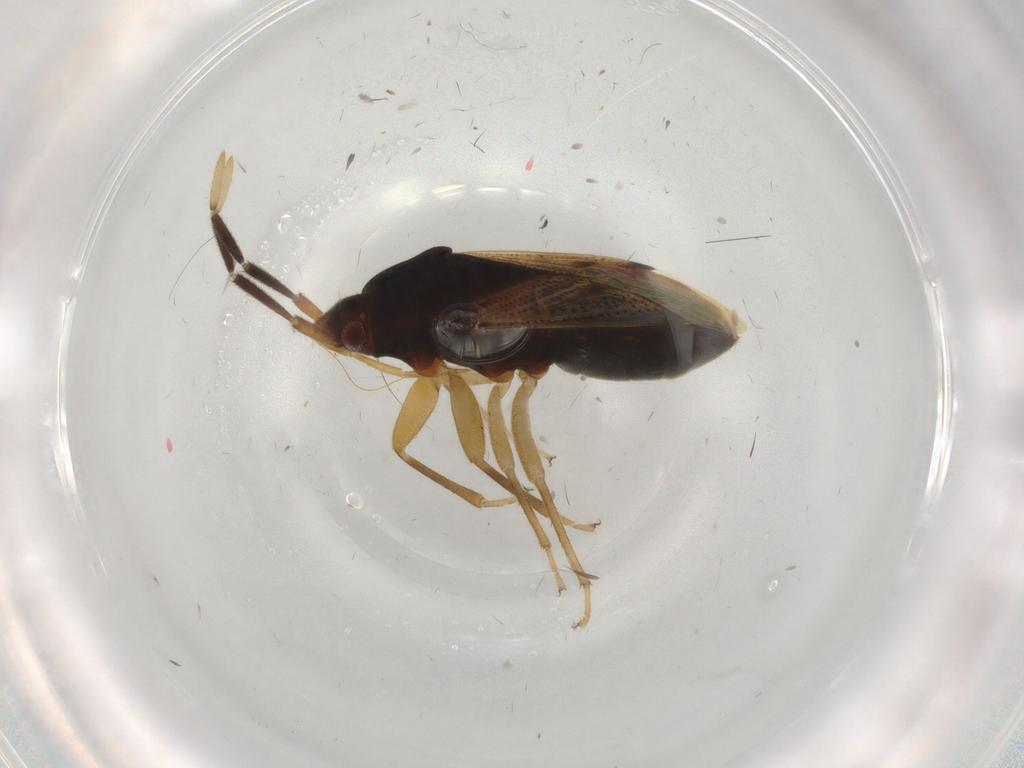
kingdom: Animalia
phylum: Arthropoda
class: Insecta
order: Hemiptera
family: Rhyparochromidae
